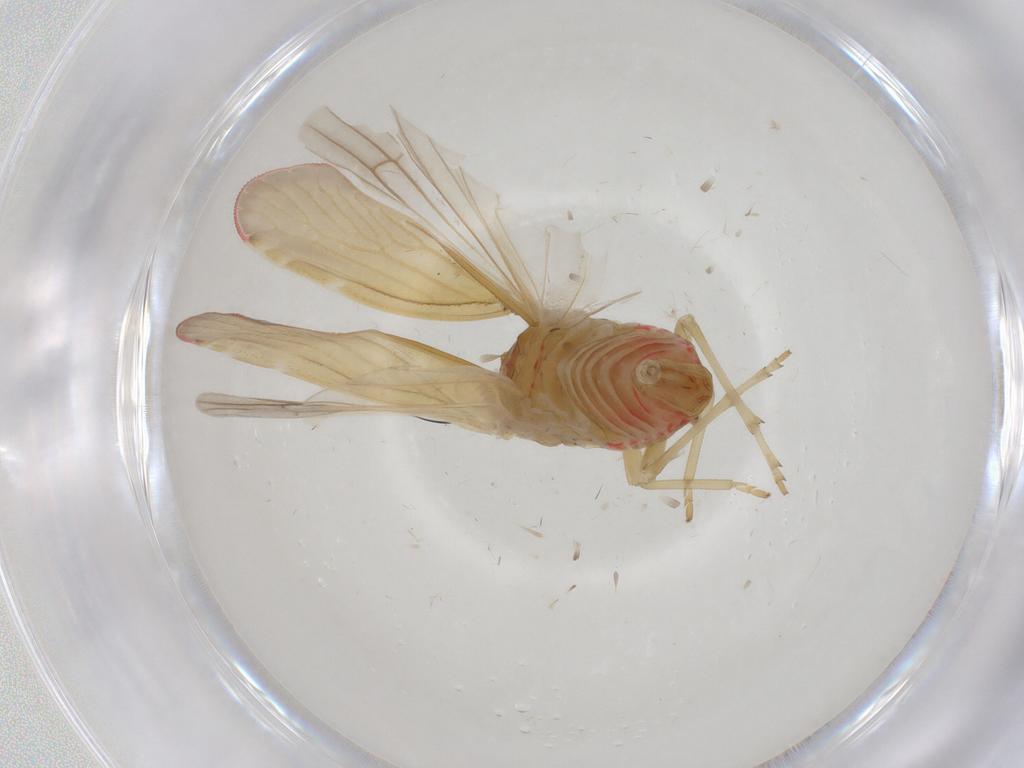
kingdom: Animalia
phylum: Arthropoda
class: Insecta
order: Hemiptera
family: Derbidae
